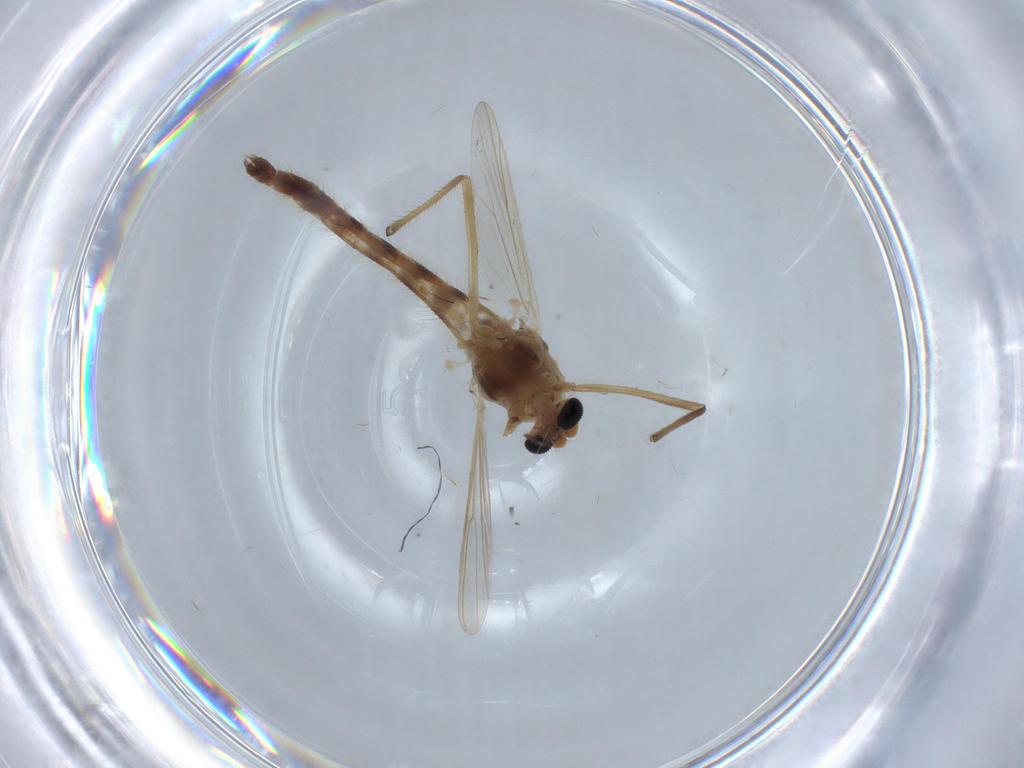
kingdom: Animalia
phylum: Arthropoda
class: Insecta
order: Diptera
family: Chironomidae
